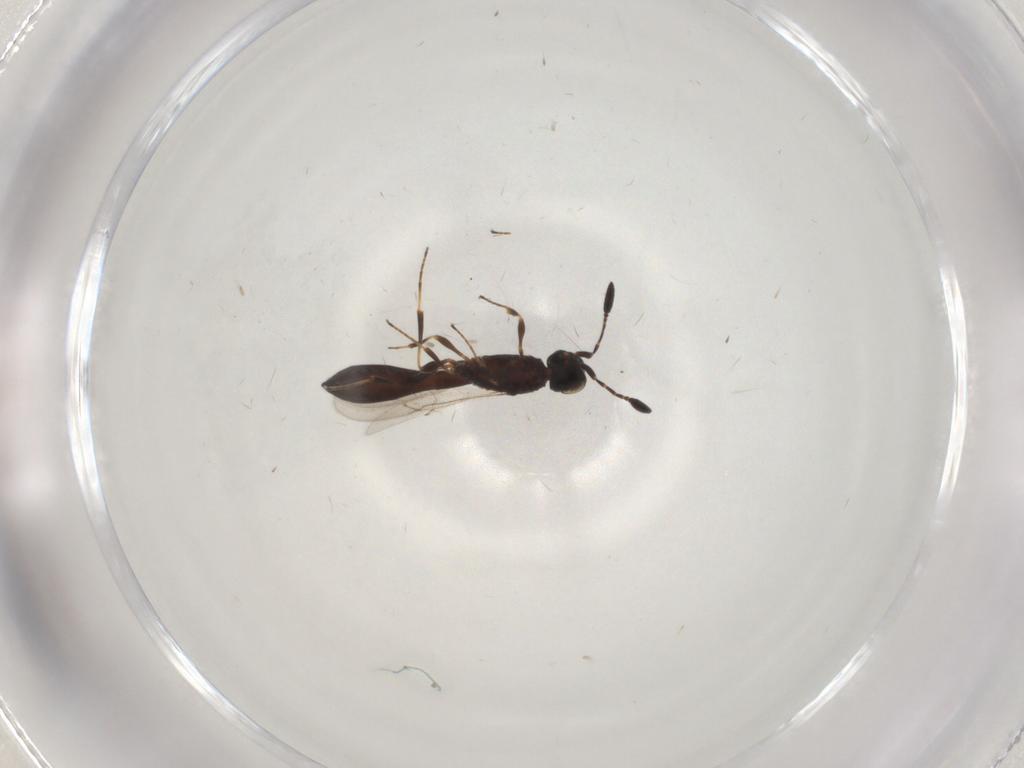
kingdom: Animalia
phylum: Arthropoda
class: Insecta
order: Hymenoptera
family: Scelionidae
